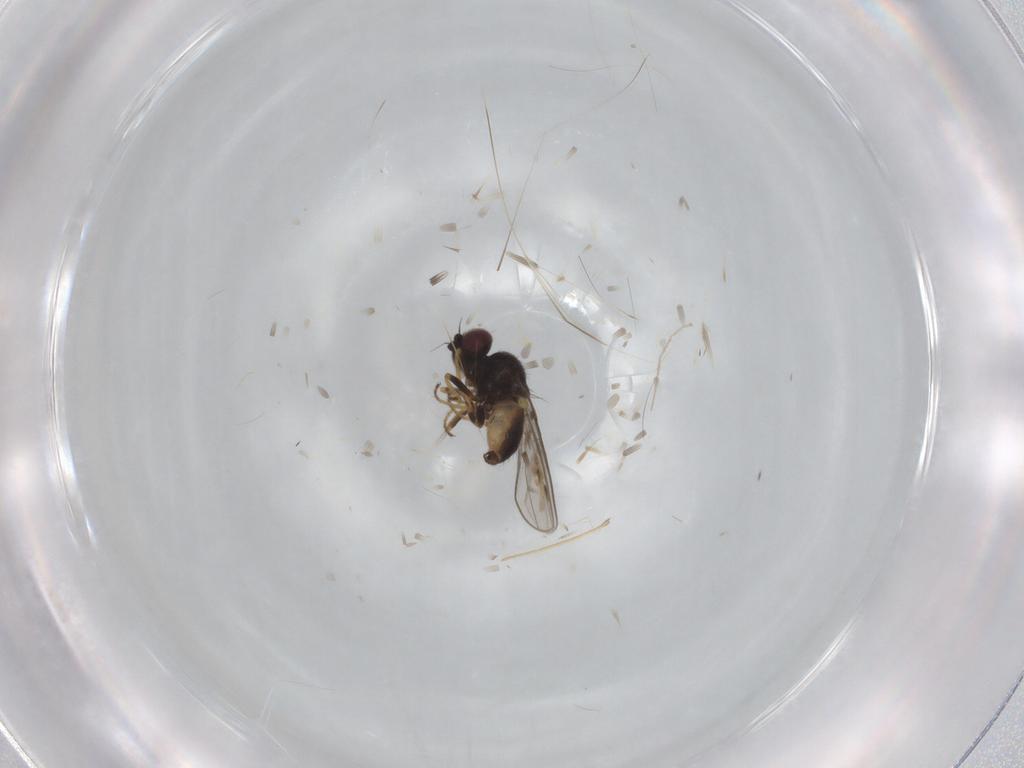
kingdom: Animalia
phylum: Arthropoda
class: Insecta
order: Diptera
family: Chloropidae
